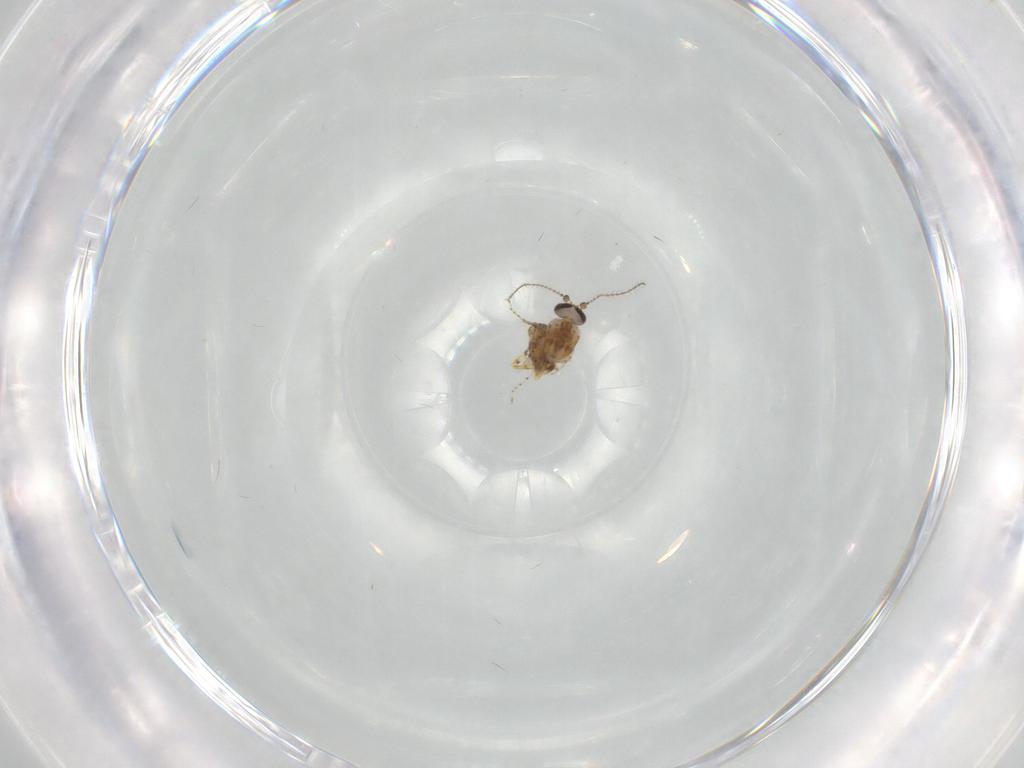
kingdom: Animalia
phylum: Arthropoda
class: Insecta
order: Diptera
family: Ceratopogonidae
